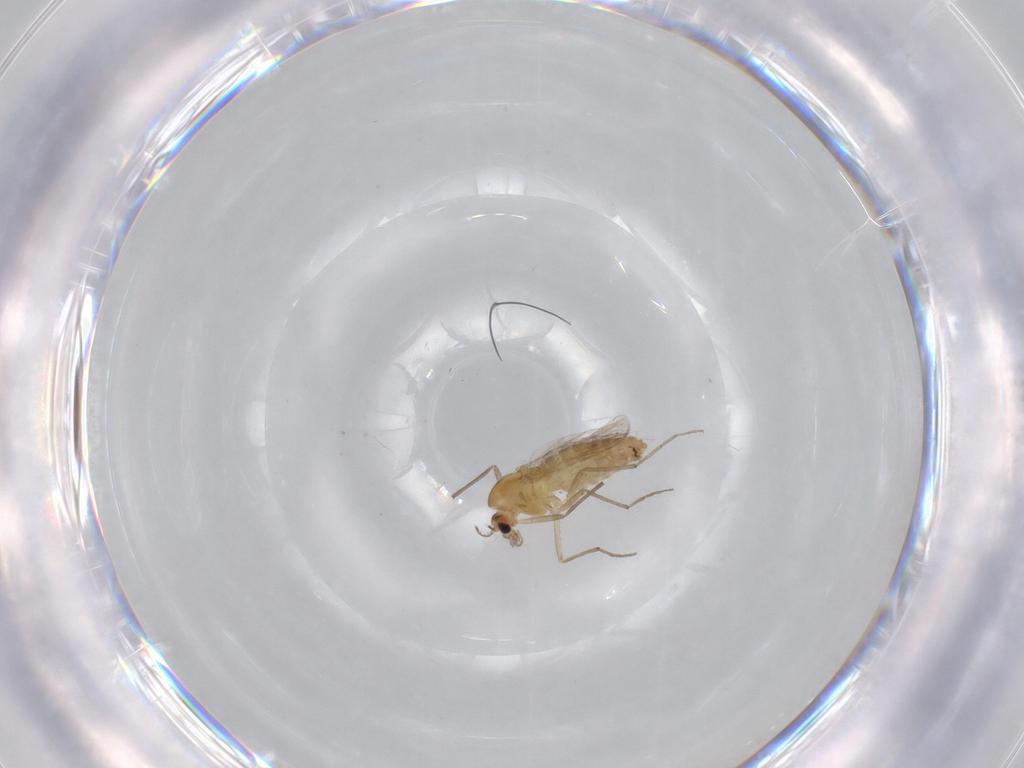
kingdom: Animalia
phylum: Arthropoda
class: Insecta
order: Diptera
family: Chironomidae
